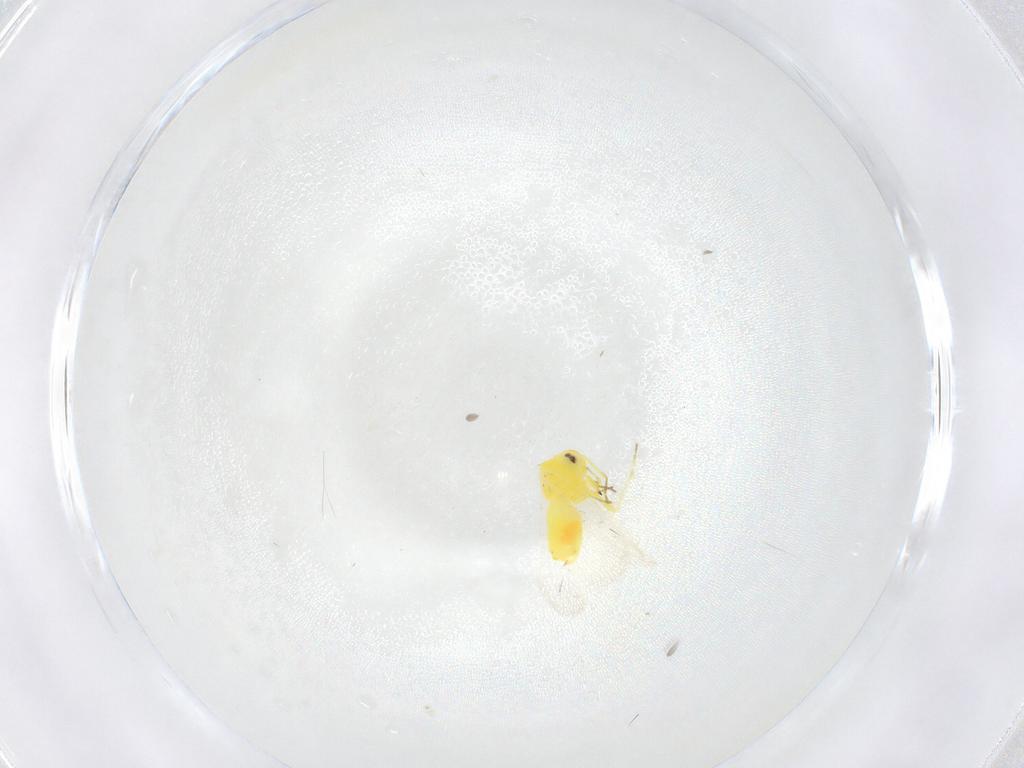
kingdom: Animalia
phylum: Arthropoda
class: Insecta
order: Hemiptera
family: Aleyrodidae
